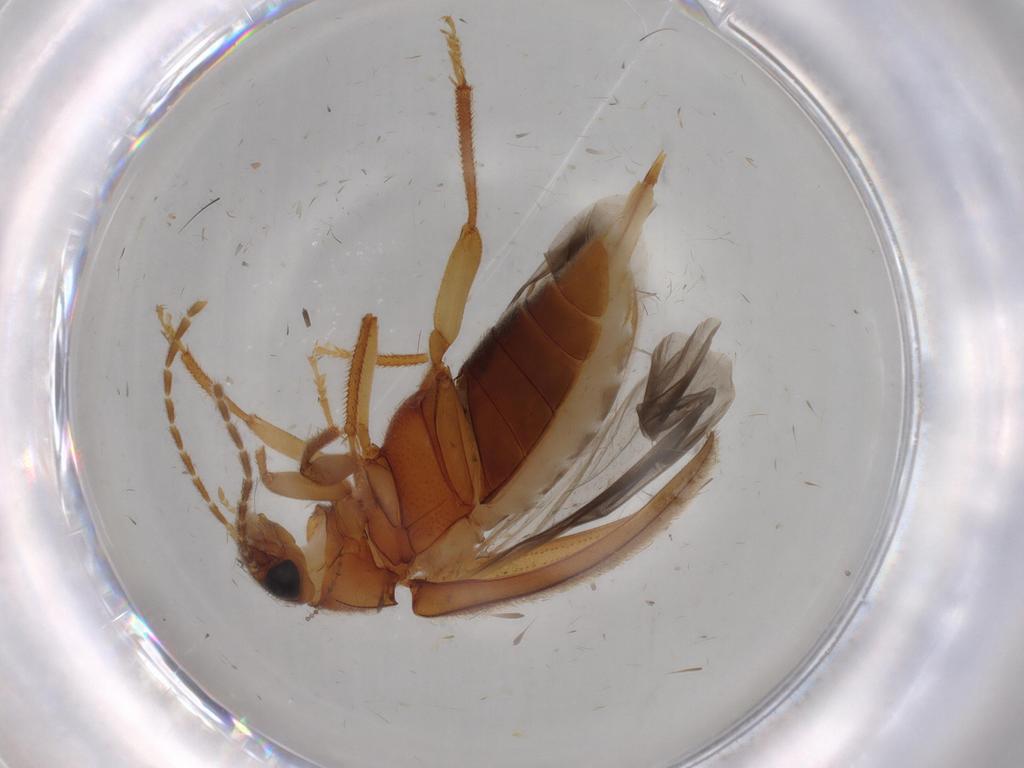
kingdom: Animalia
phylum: Arthropoda
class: Insecta
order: Coleoptera
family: Ptilodactylidae
